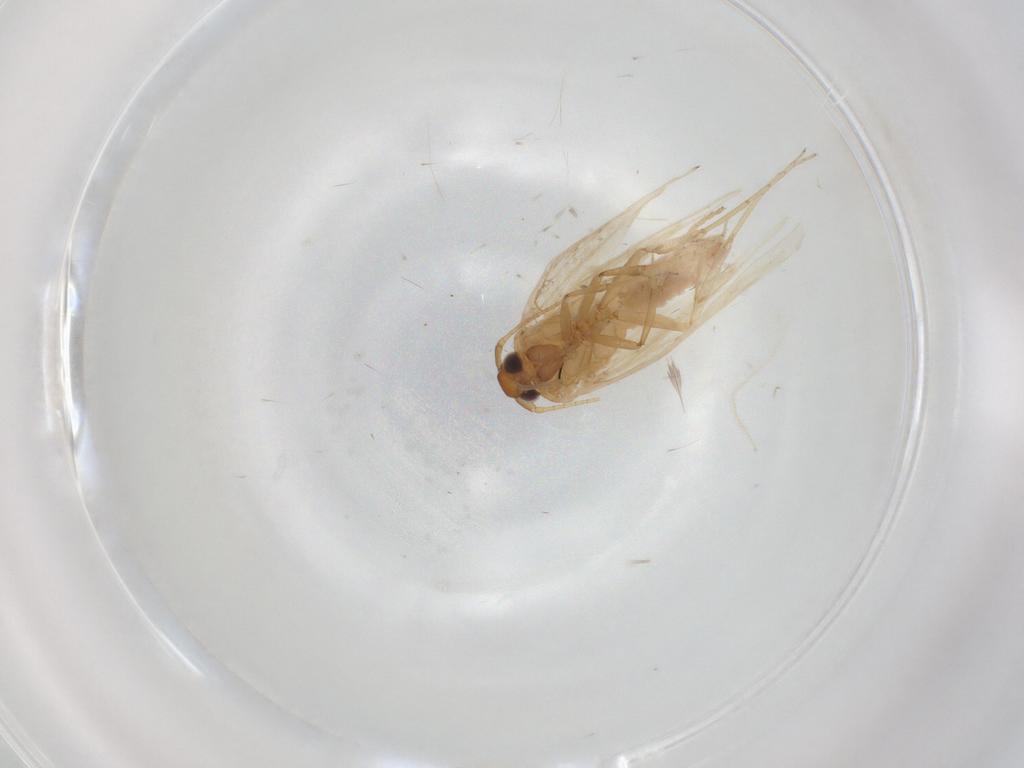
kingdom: Animalia
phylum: Arthropoda
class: Insecta
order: Lepidoptera
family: Gelechiidae
